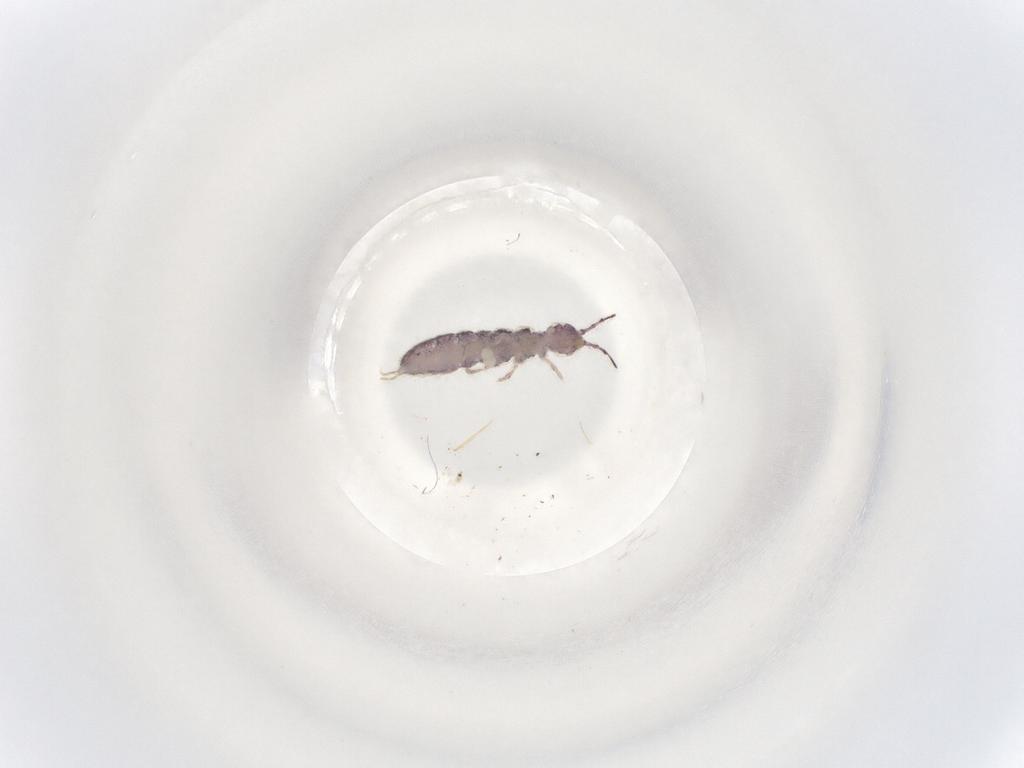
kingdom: Animalia
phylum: Arthropoda
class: Collembola
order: Entomobryomorpha
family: Isotomidae
